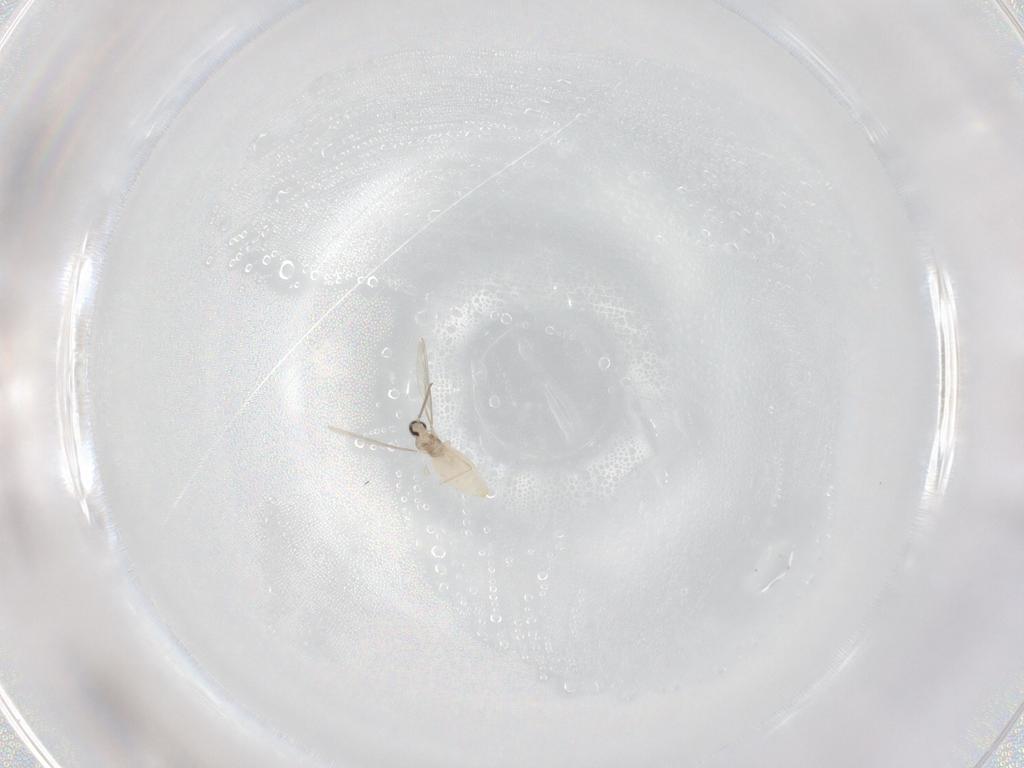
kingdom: Animalia
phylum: Arthropoda
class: Insecta
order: Diptera
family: Cecidomyiidae
